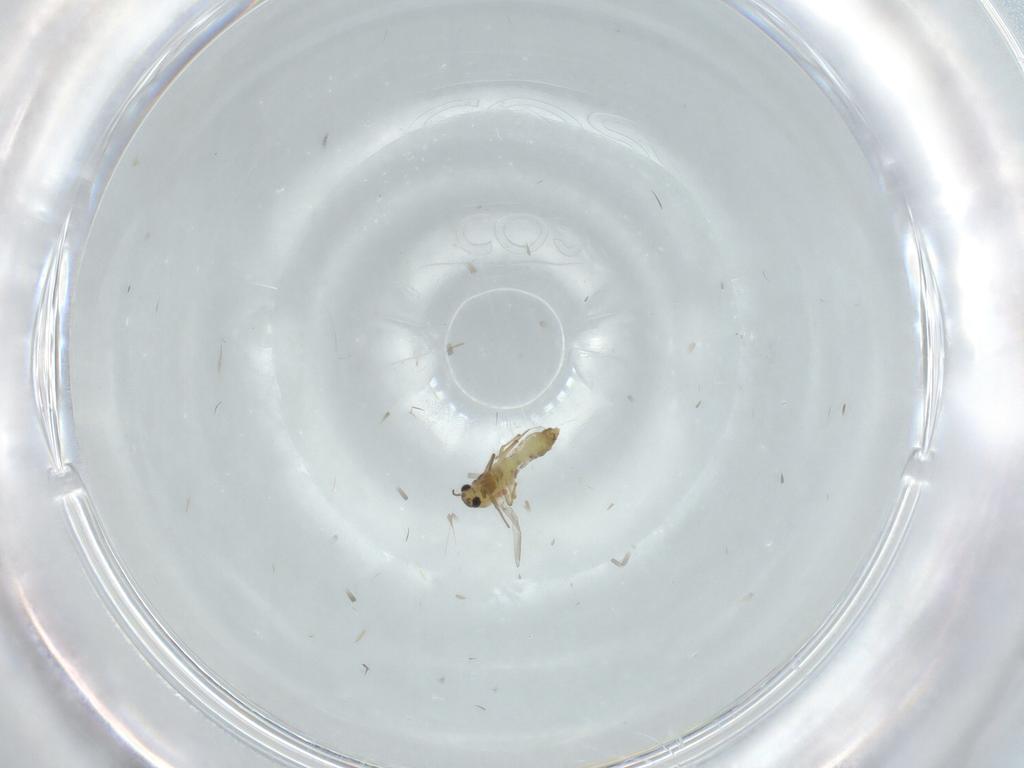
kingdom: Animalia
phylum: Arthropoda
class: Insecta
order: Diptera
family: Chironomidae
